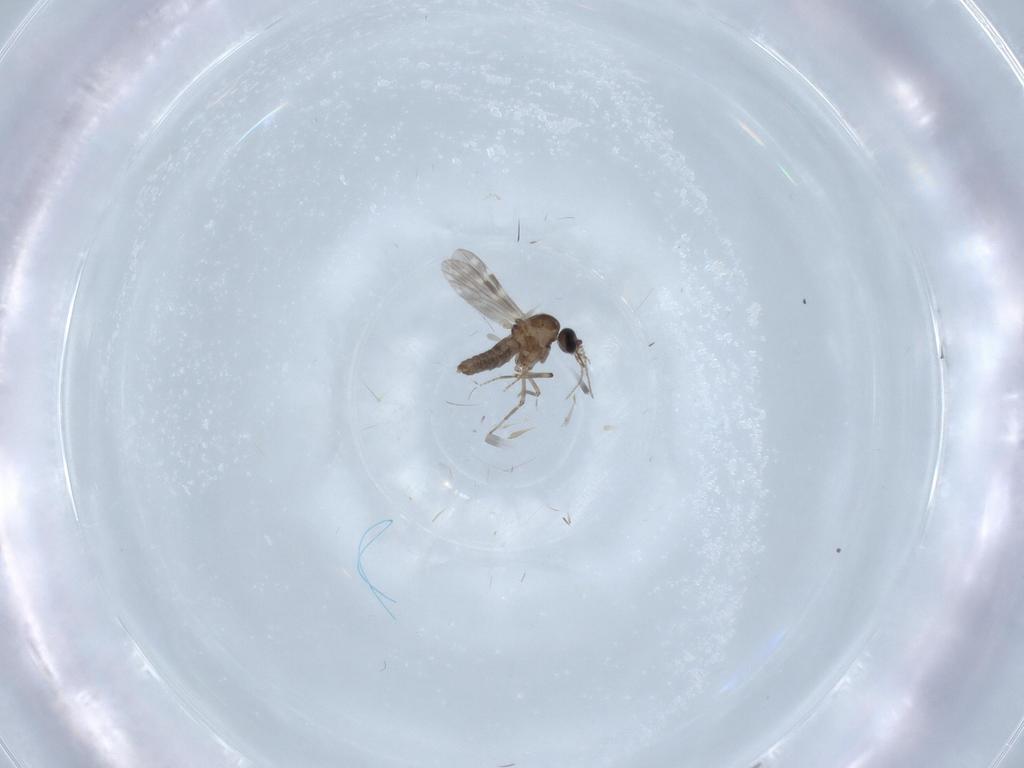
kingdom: Animalia
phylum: Arthropoda
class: Insecta
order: Diptera
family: Ceratopogonidae
